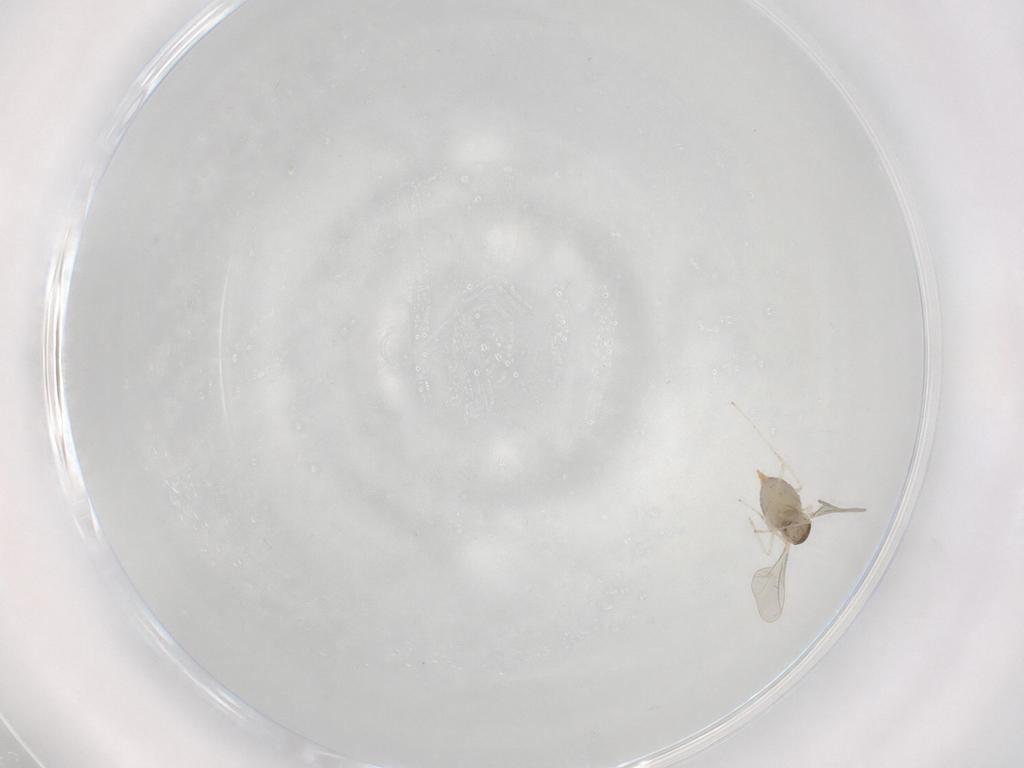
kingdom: Animalia
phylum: Arthropoda
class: Insecta
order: Diptera
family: Cecidomyiidae
